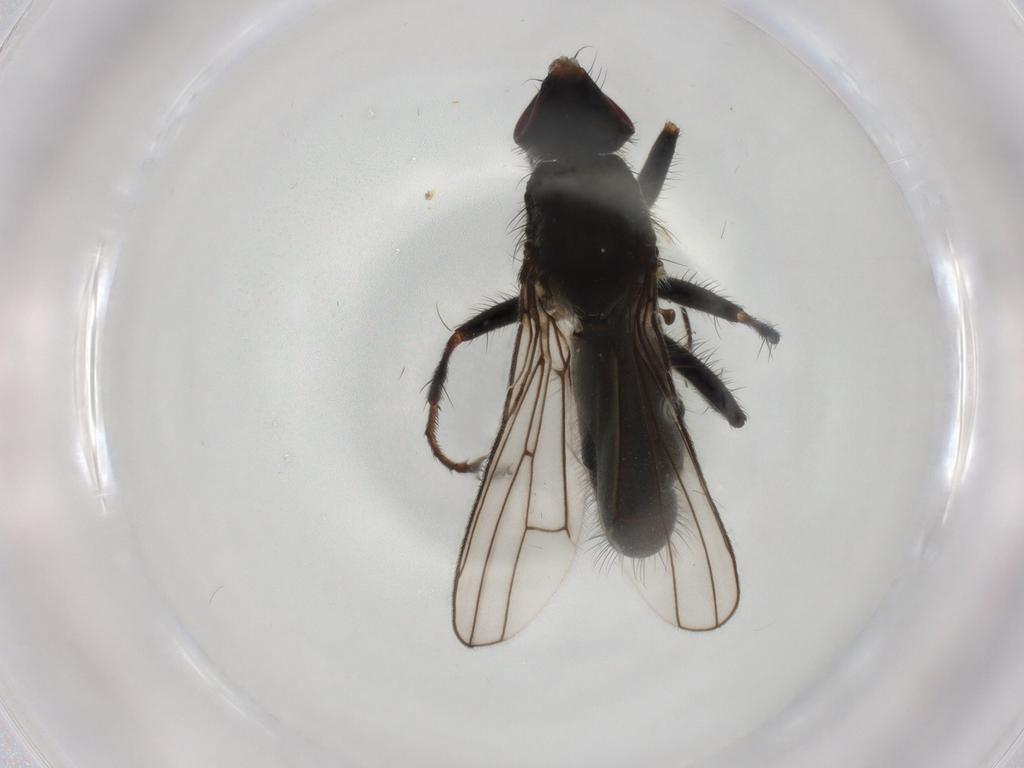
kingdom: Animalia
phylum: Arthropoda
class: Insecta
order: Diptera
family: Scathophagidae
